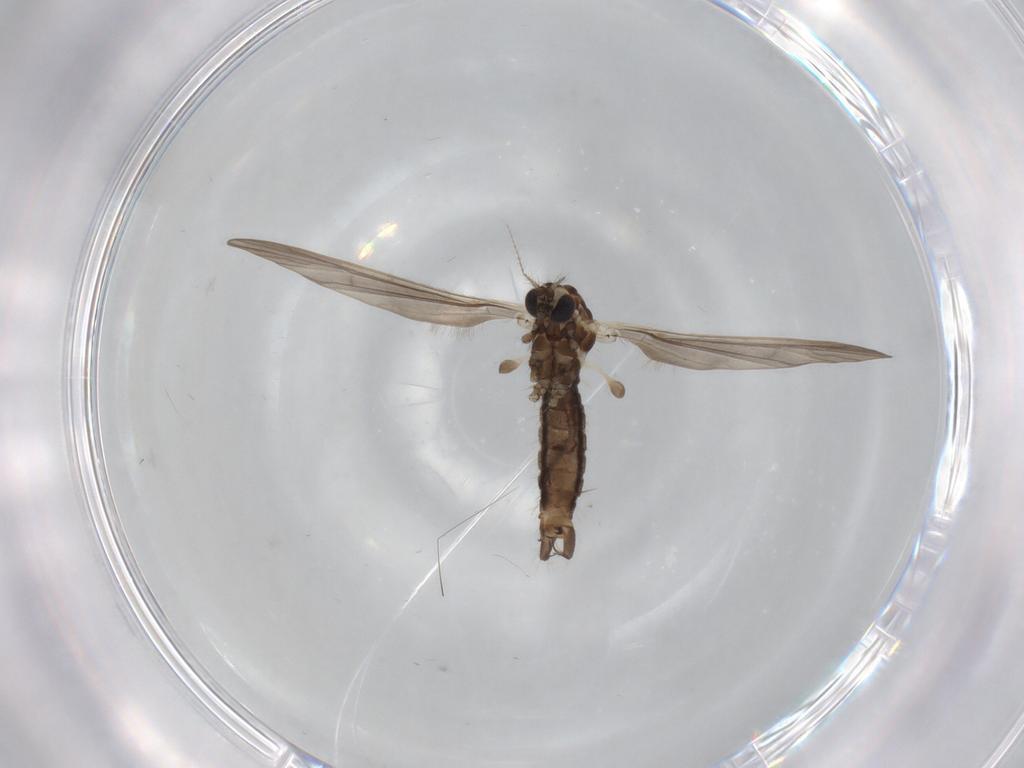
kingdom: Animalia
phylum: Arthropoda
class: Insecta
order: Diptera
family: Limoniidae
